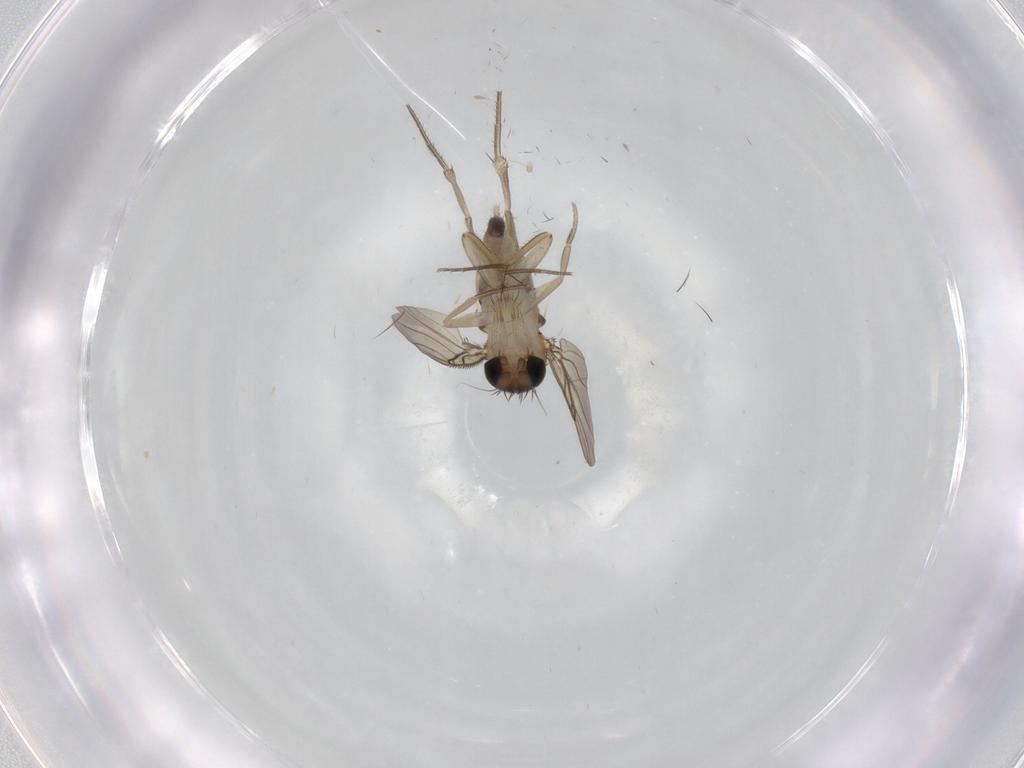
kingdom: Animalia
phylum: Arthropoda
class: Insecta
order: Diptera
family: Phoridae
